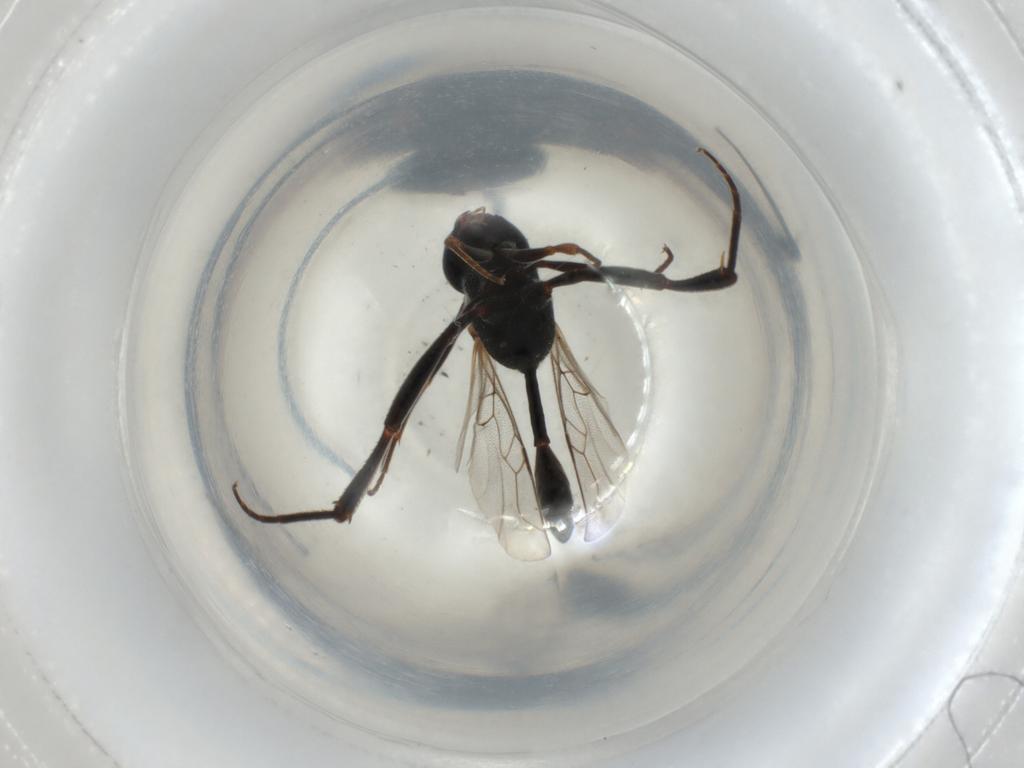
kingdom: Animalia
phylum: Arthropoda
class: Insecta
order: Hymenoptera
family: Evaniidae
